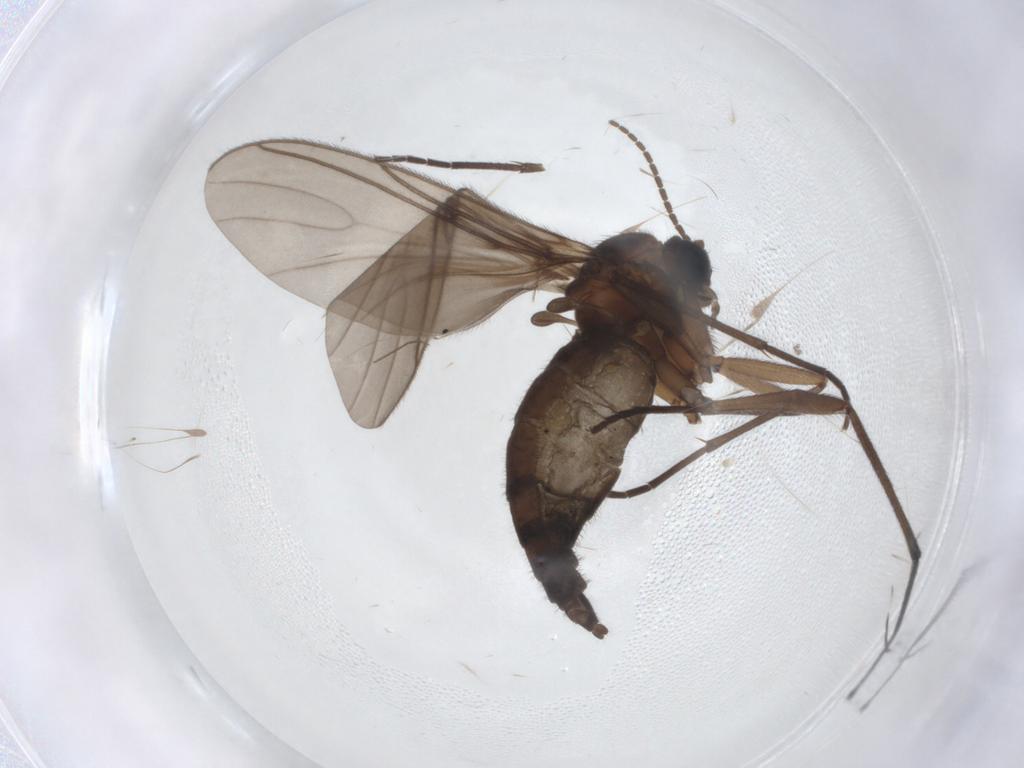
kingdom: Animalia
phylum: Arthropoda
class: Insecta
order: Diptera
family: Sciaridae
